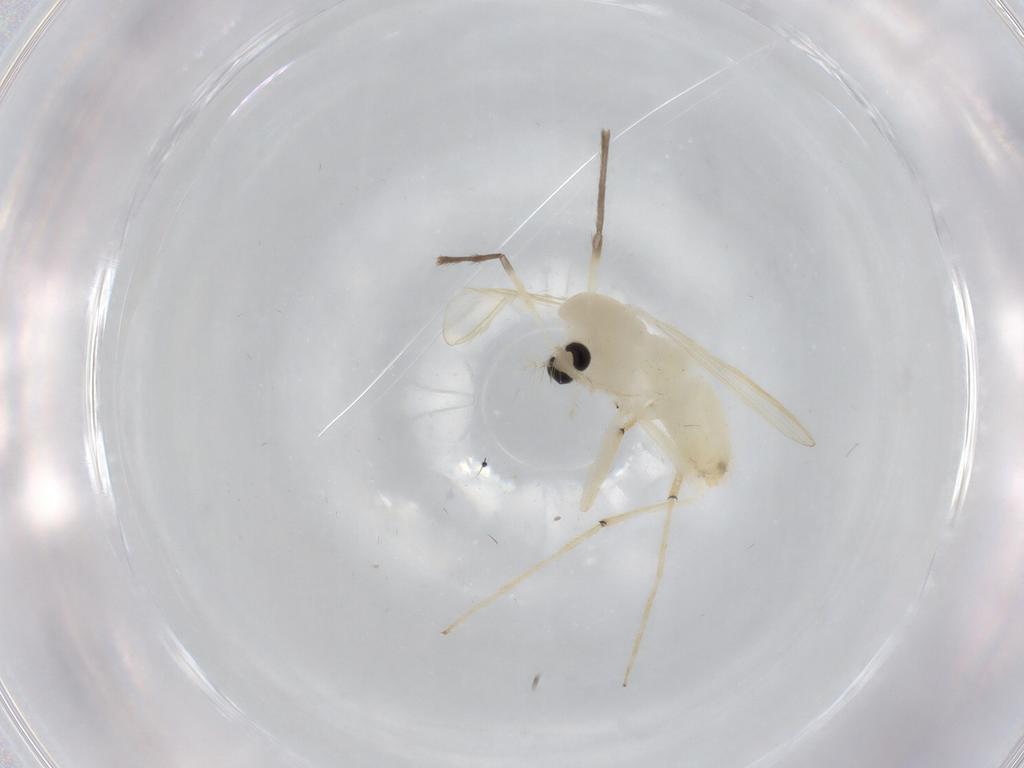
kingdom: Animalia
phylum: Arthropoda
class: Insecta
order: Diptera
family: Chironomidae
